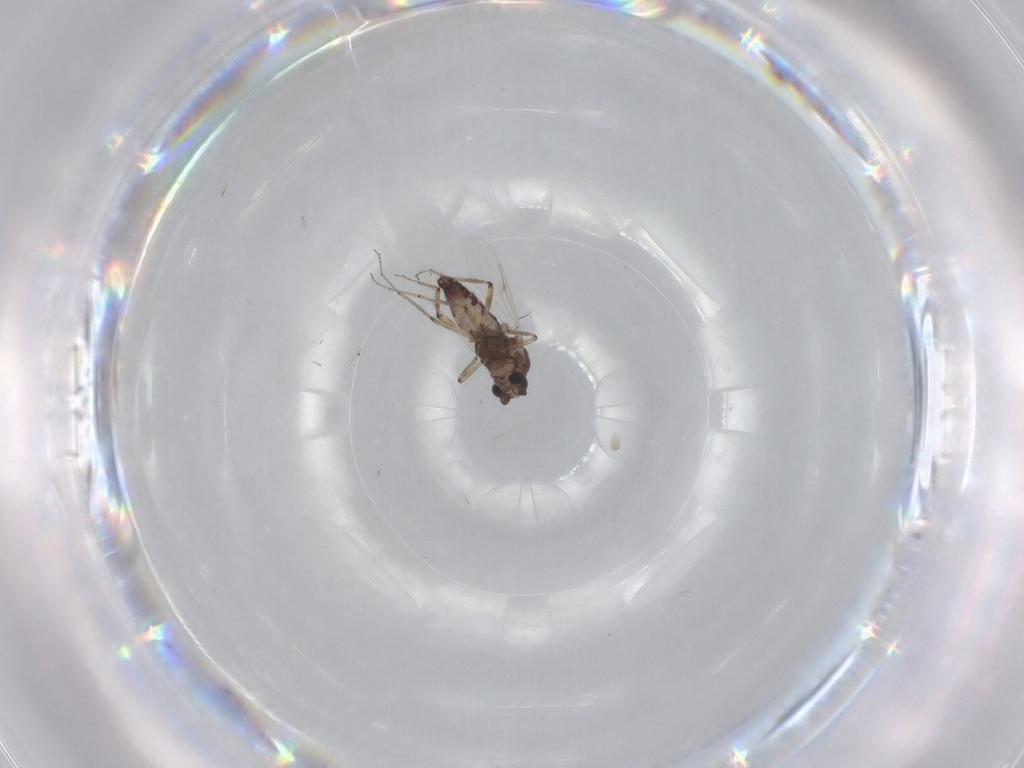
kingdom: Animalia
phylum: Arthropoda
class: Insecta
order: Diptera
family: Ceratopogonidae
